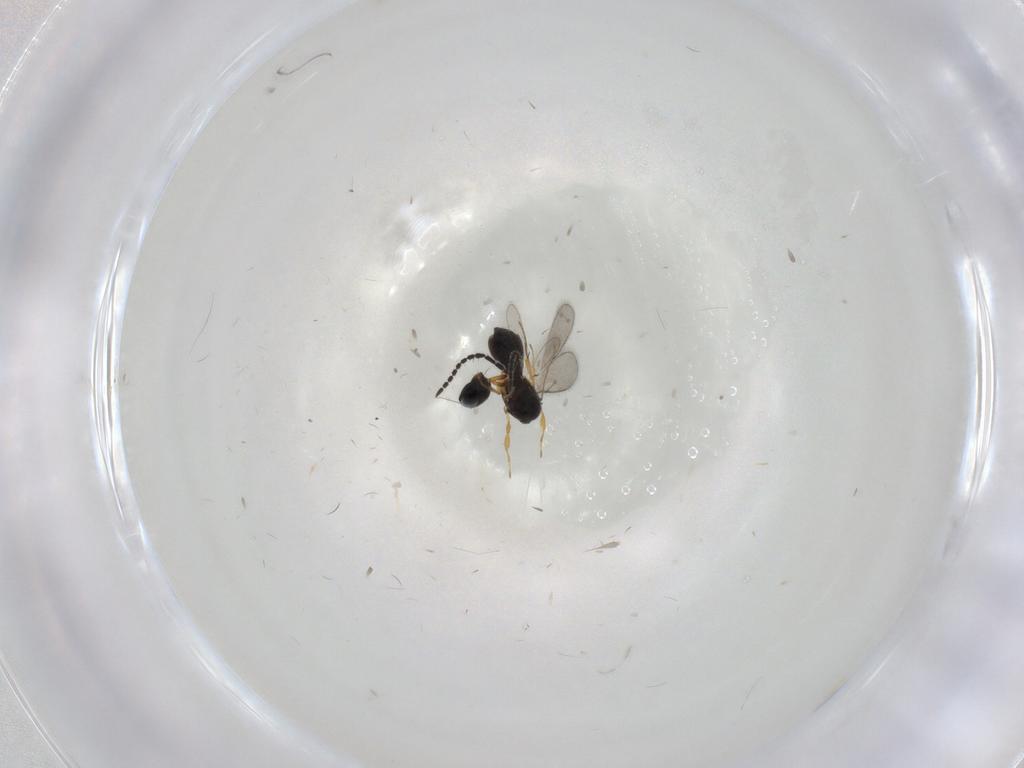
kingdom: Animalia
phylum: Arthropoda
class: Insecta
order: Hymenoptera
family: Scelionidae
